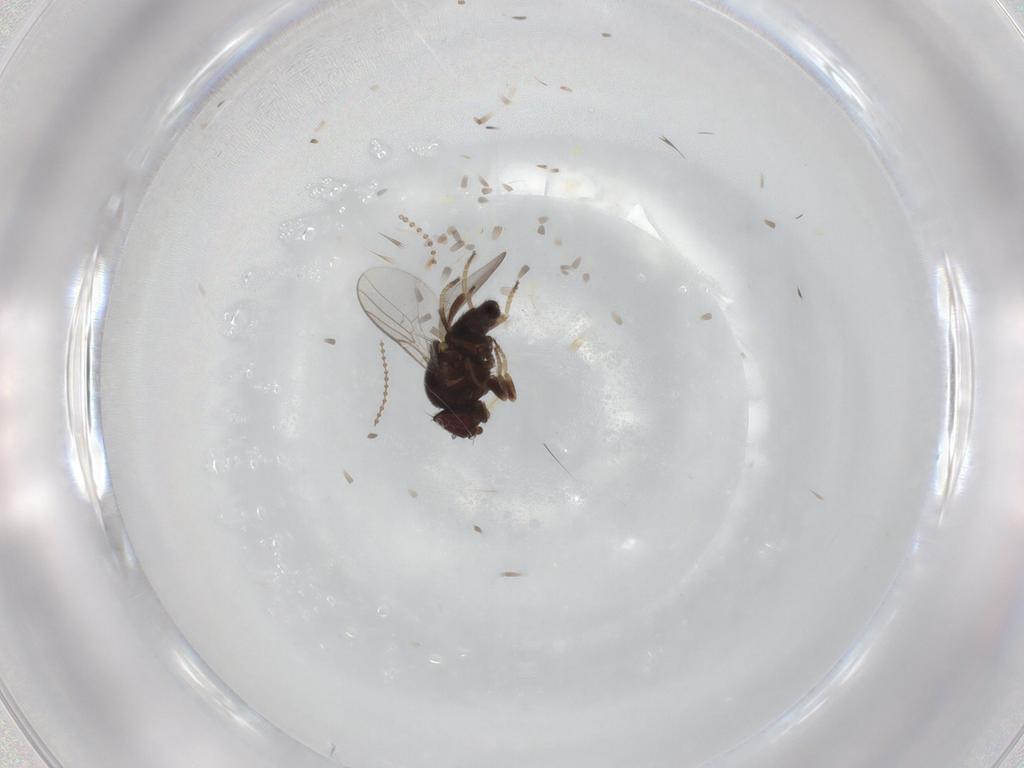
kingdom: Animalia
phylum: Arthropoda
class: Insecta
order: Diptera
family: Chloropidae
